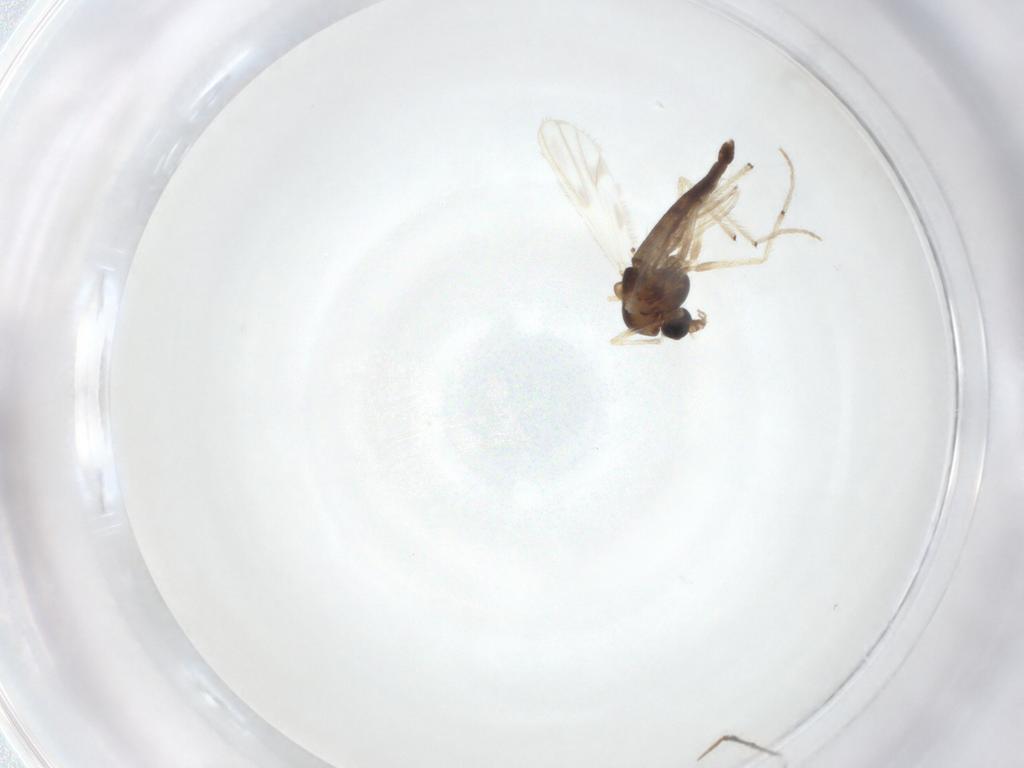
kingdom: Animalia
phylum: Arthropoda
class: Insecta
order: Diptera
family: Chironomidae
